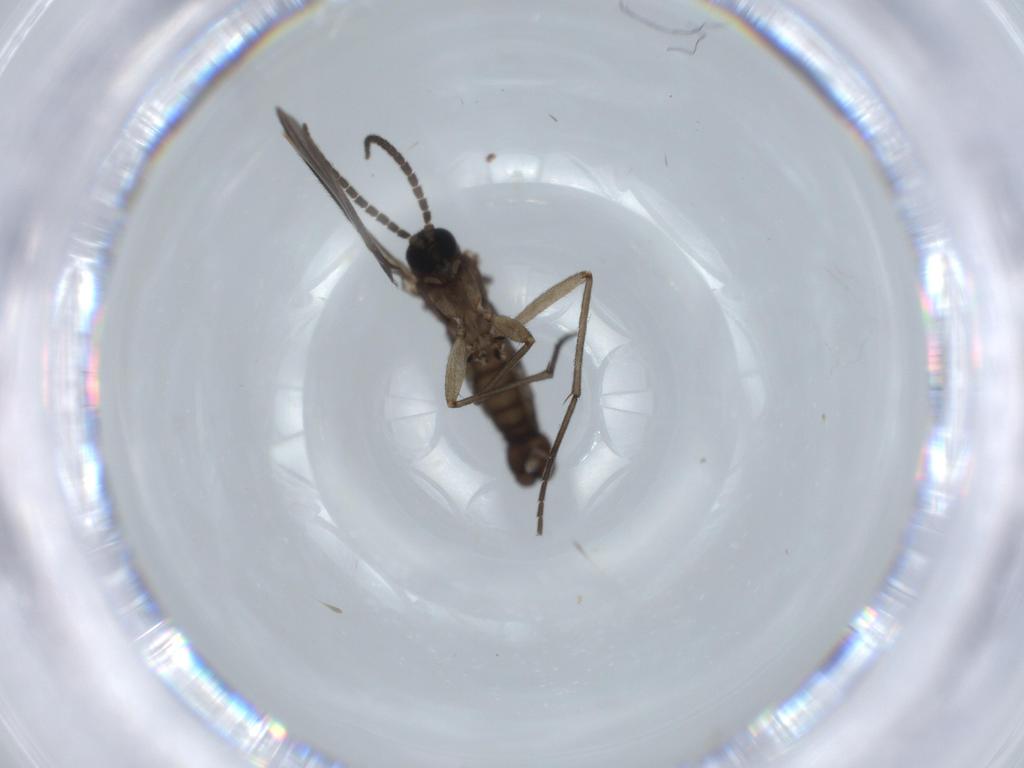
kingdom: Animalia
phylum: Arthropoda
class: Insecta
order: Diptera
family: Sciaridae
